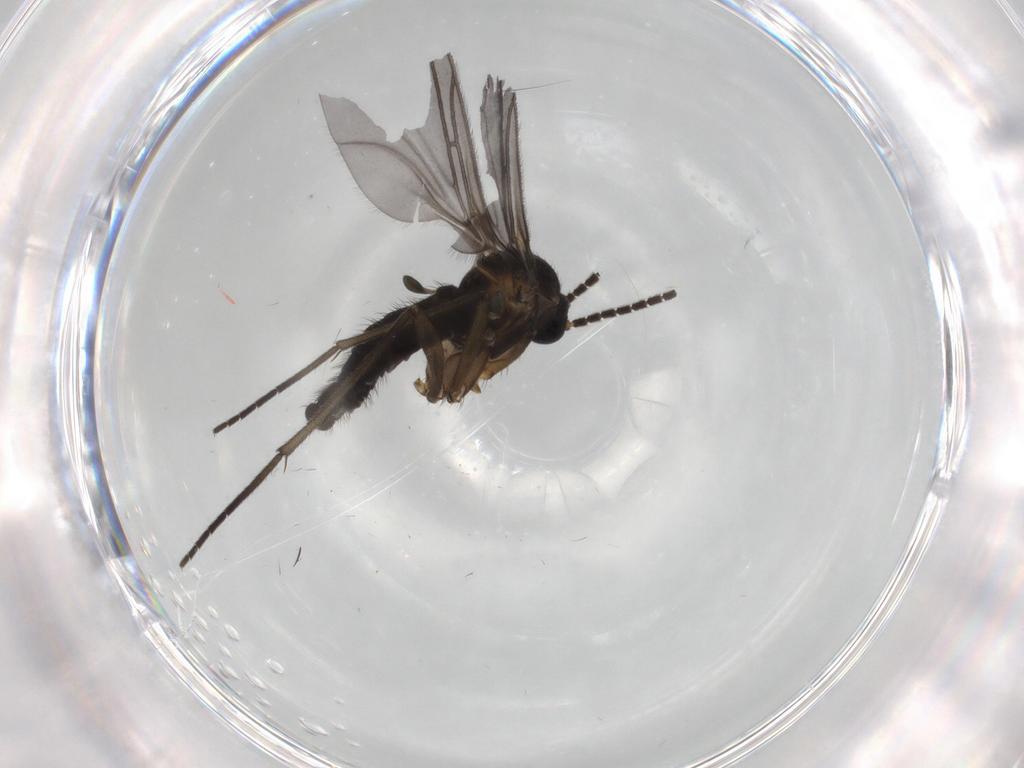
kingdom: Animalia
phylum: Arthropoda
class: Insecta
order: Diptera
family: Sciaridae
